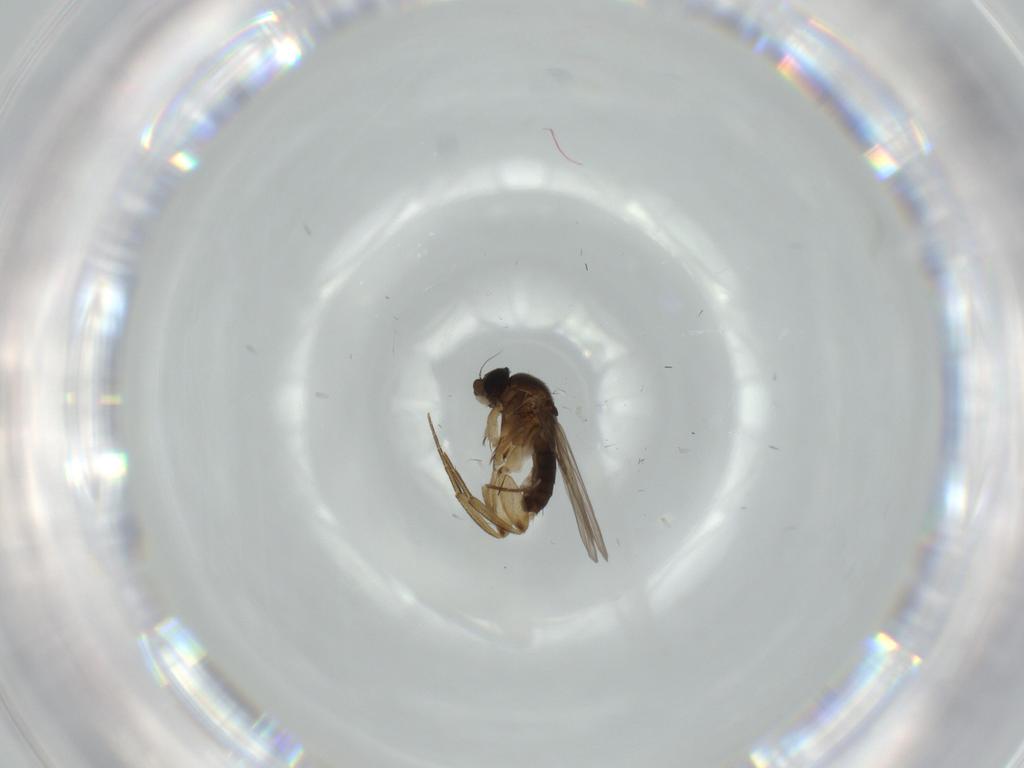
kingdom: Animalia
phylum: Arthropoda
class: Insecta
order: Diptera
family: Phoridae
